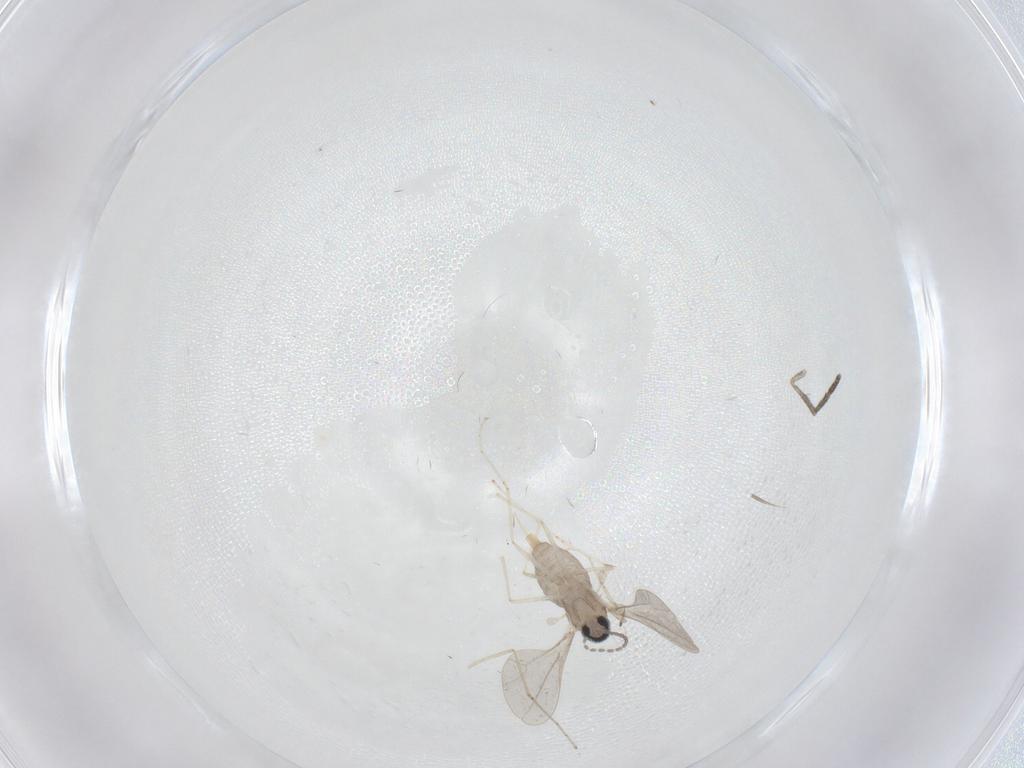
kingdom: Animalia
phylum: Arthropoda
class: Insecta
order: Diptera
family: Cecidomyiidae
